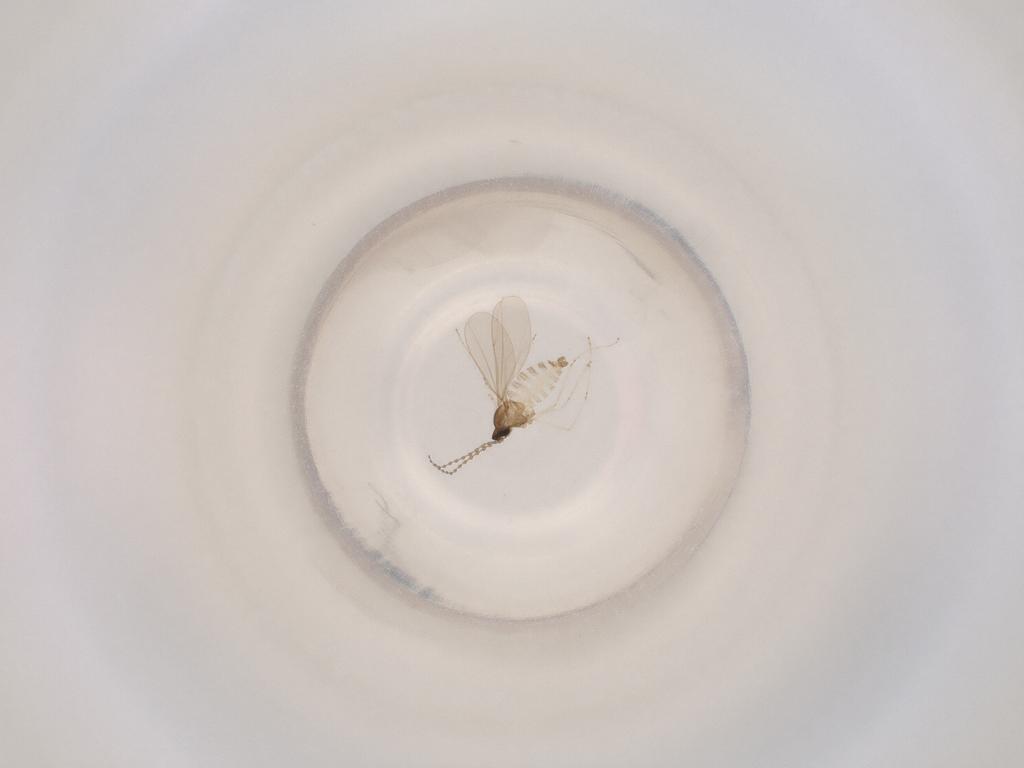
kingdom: Animalia
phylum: Arthropoda
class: Insecta
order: Diptera
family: Cecidomyiidae
